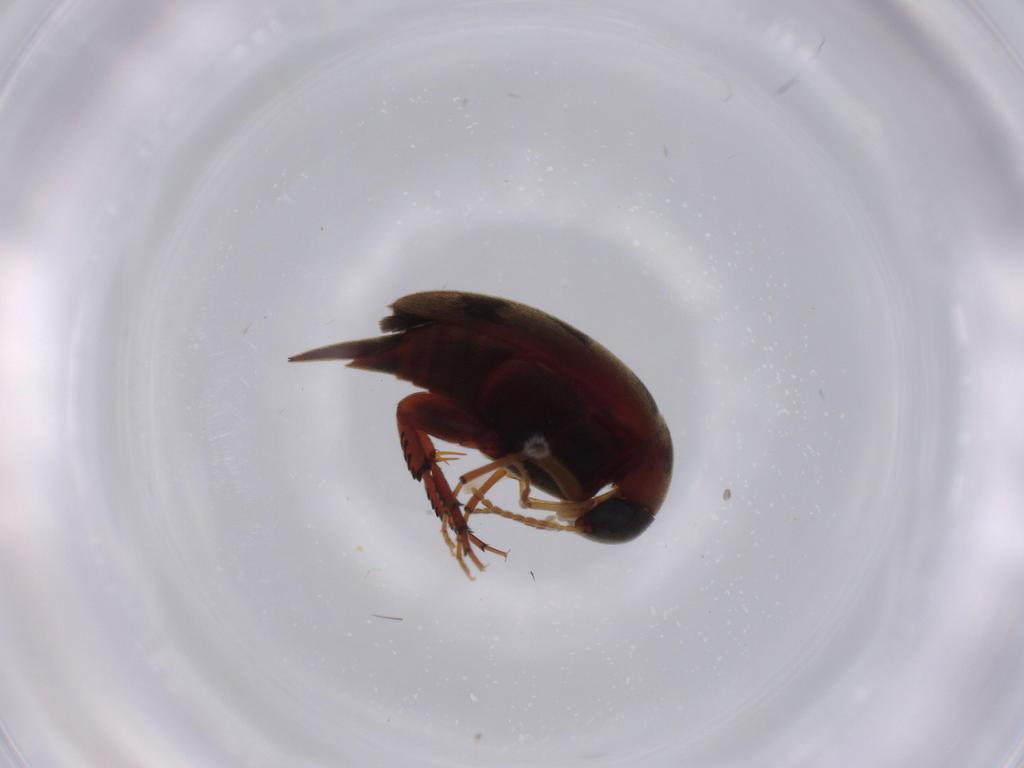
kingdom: Animalia
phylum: Arthropoda
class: Insecta
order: Coleoptera
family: Mordellidae
